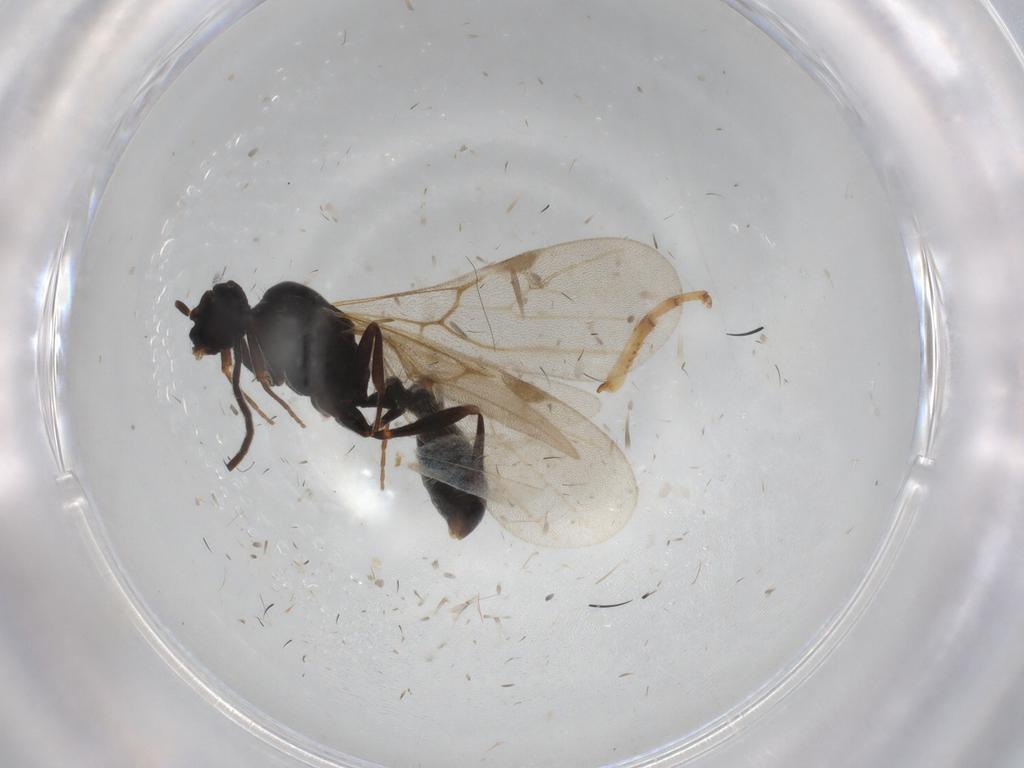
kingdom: Animalia
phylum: Arthropoda
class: Insecta
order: Hymenoptera
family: Formicidae
